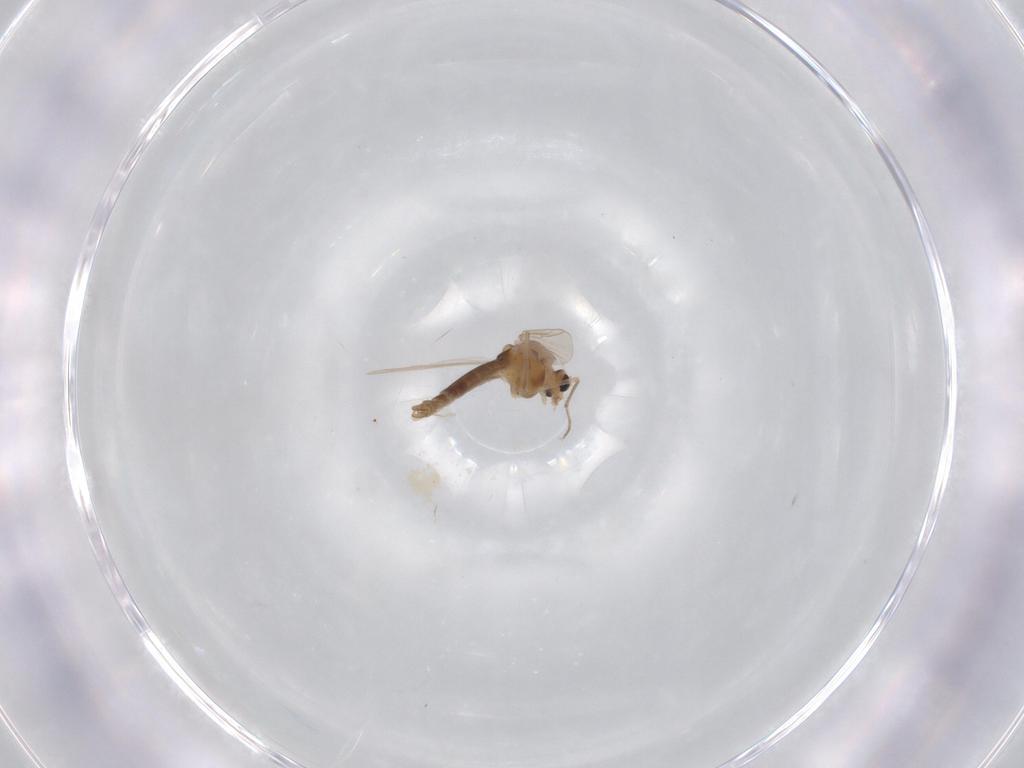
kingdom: Animalia
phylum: Arthropoda
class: Insecta
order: Diptera
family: Chironomidae
